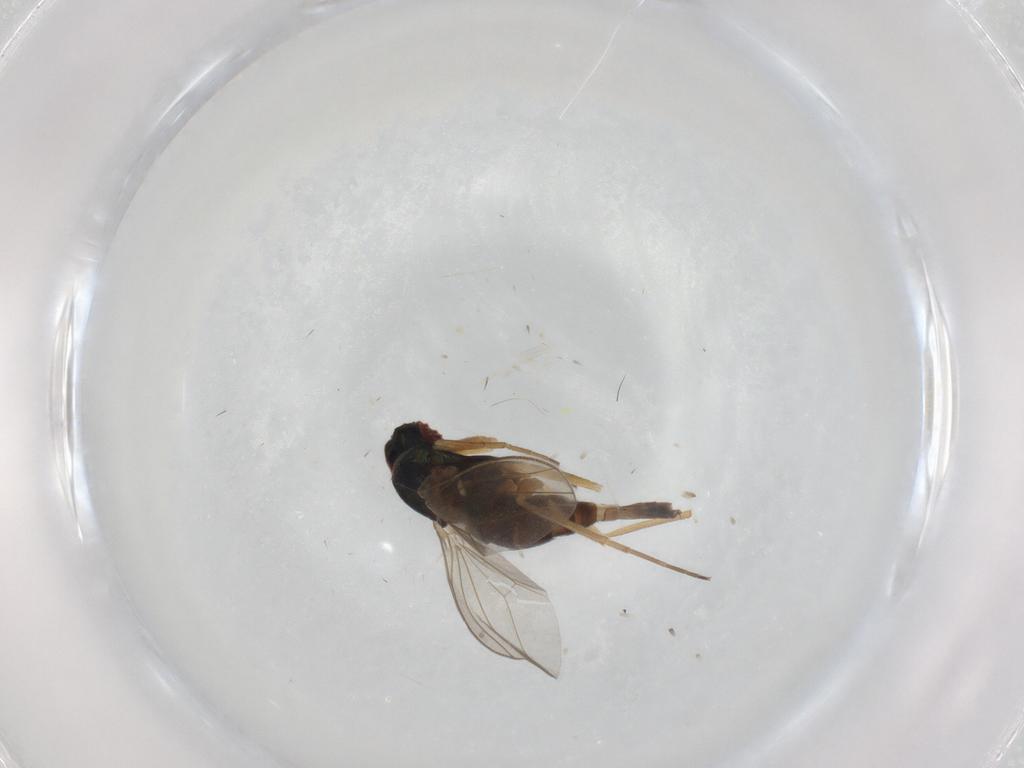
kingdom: Animalia
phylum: Arthropoda
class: Insecta
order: Diptera
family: Dolichopodidae
